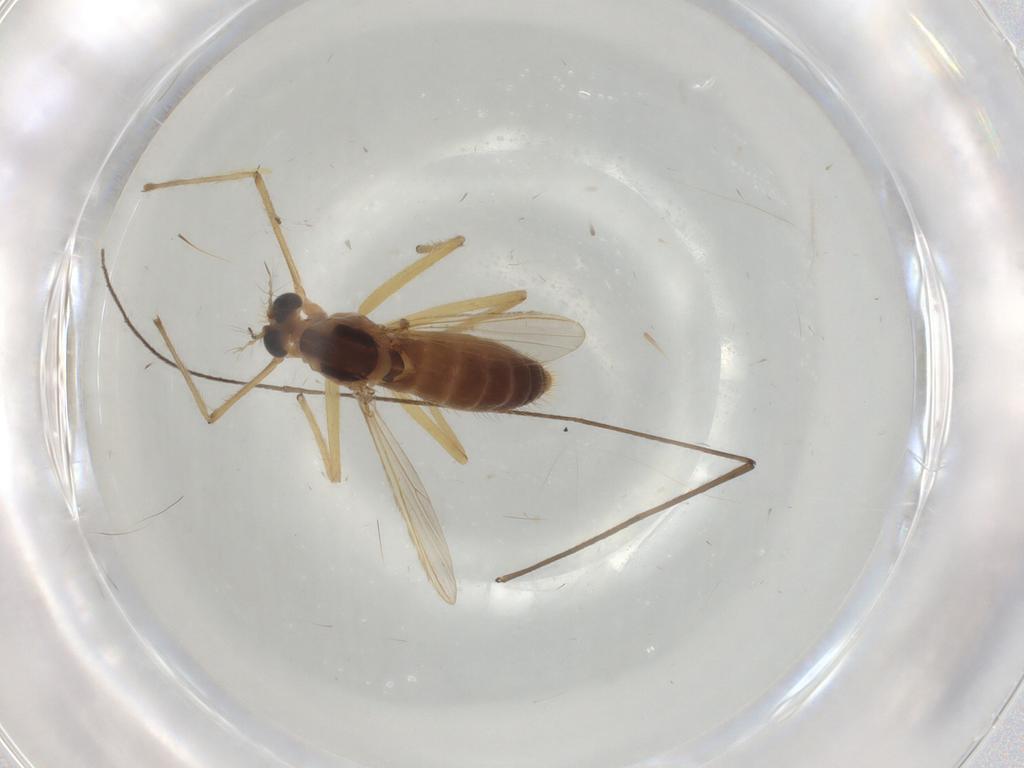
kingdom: Animalia
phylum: Arthropoda
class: Insecta
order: Diptera
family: Chironomidae
